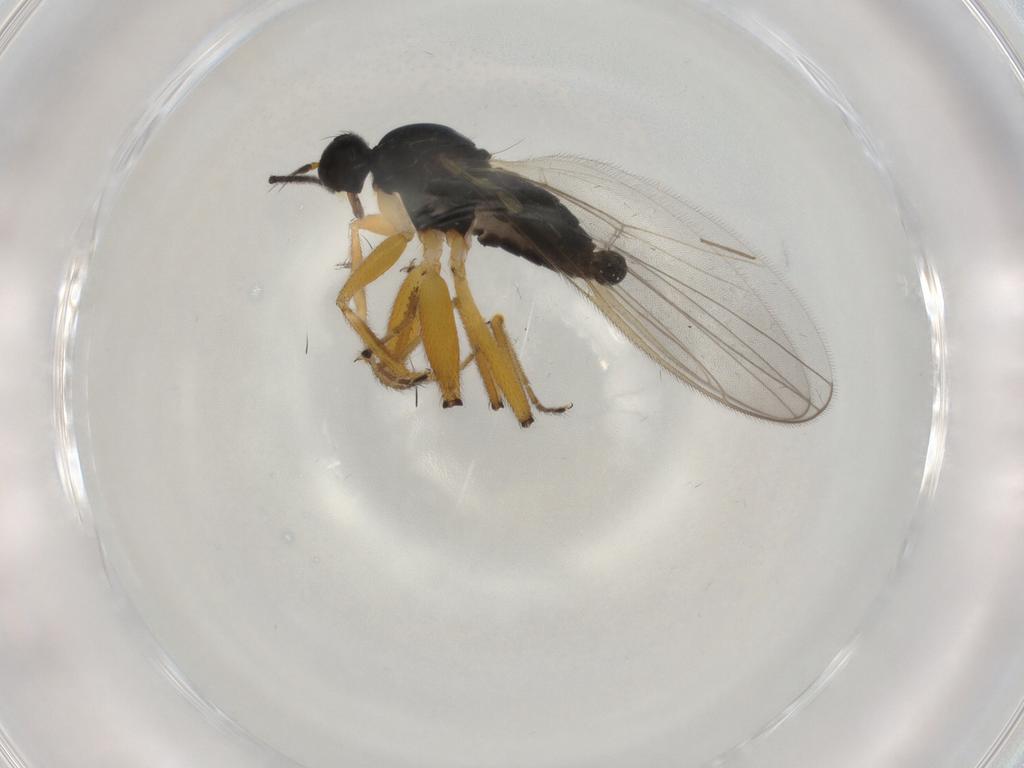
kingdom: Animalia
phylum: Arthropoda
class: Insecta
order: Diptera
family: Hybotidae
